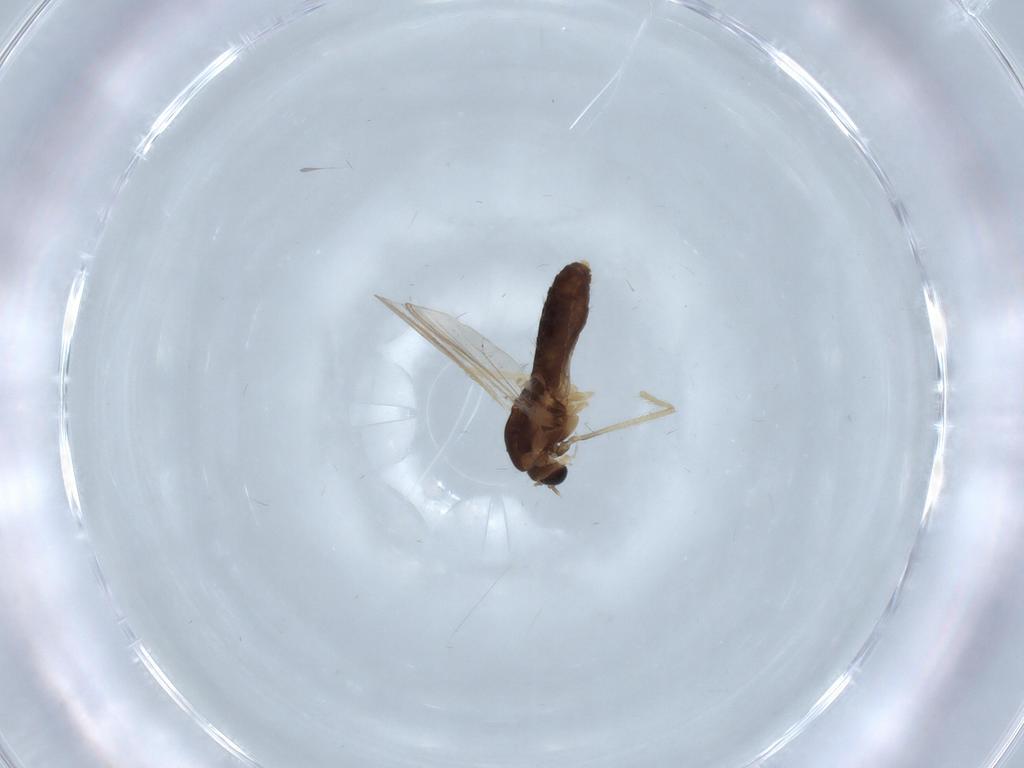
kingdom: Animalia
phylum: Arthropoda
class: Insecta
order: Diptera
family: Chironomidae
